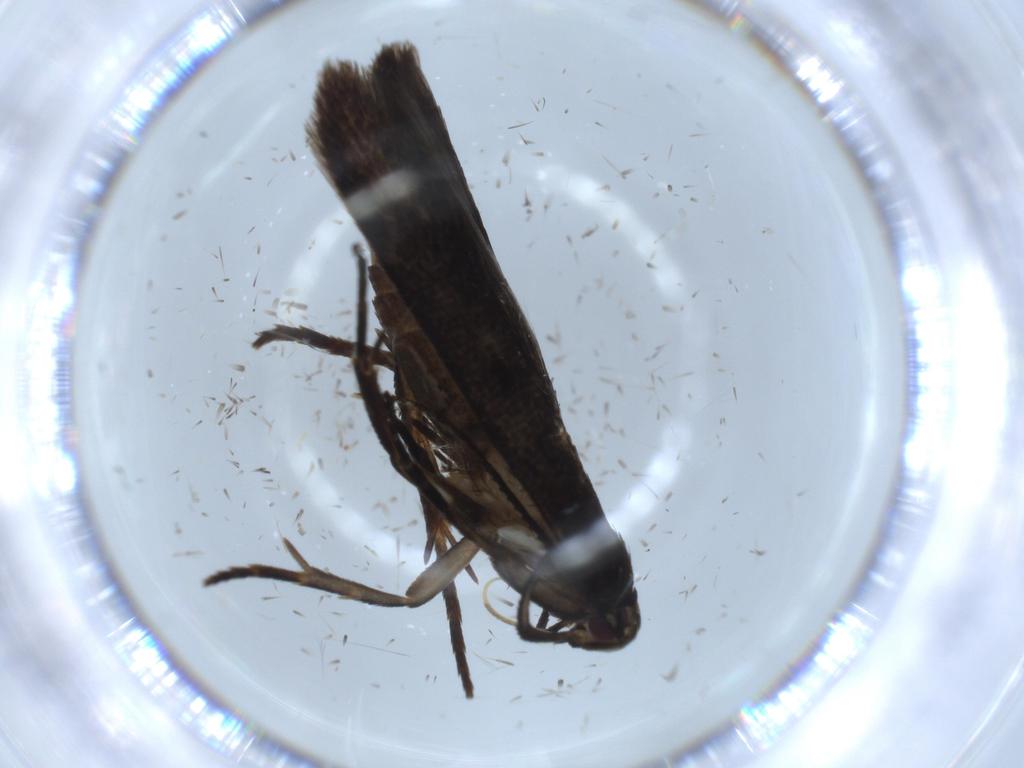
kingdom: Animalia
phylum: Arthropoda
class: Insecta
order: Lepidoptera
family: Cosmopterigidae
